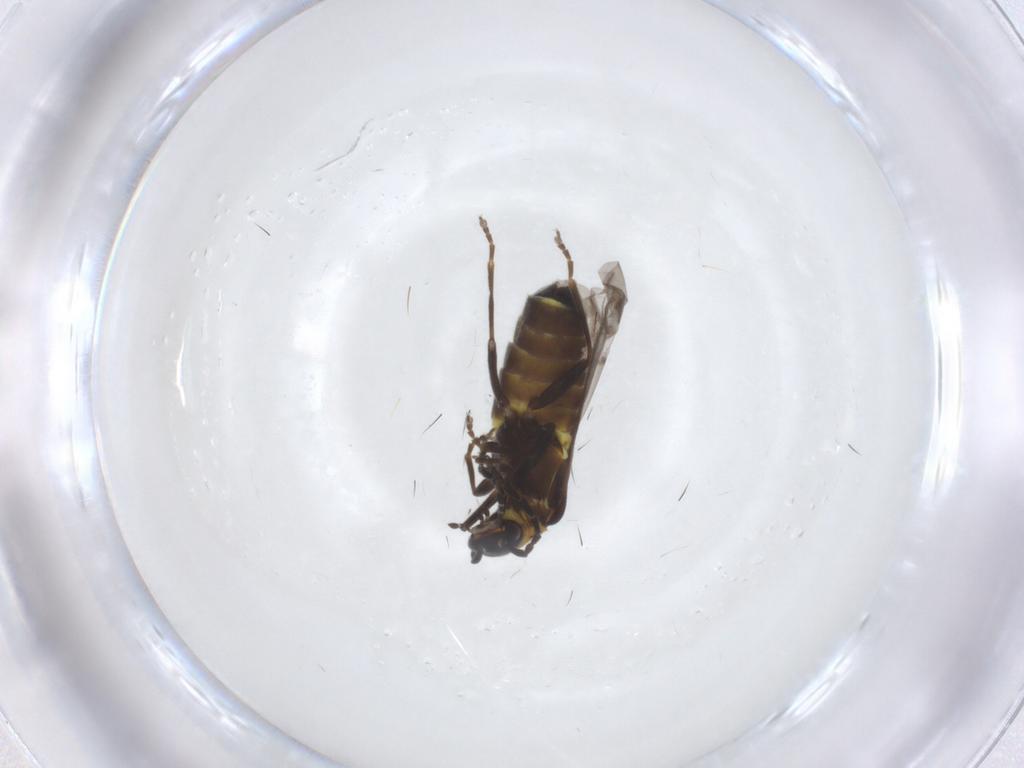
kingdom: Animalia
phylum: Arthropoda
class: Insecta
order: Coleoptera
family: Cantharidae
